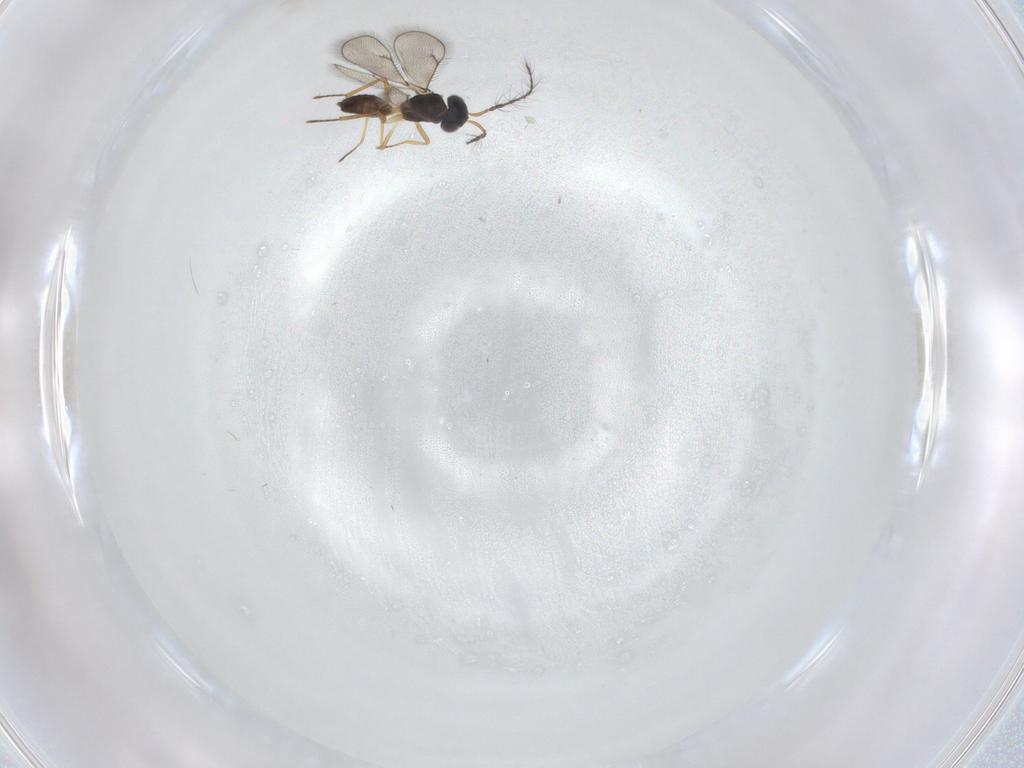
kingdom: Animalia
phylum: Arthropoda
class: Insecta
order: Hymenoptera
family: Eulophidae
